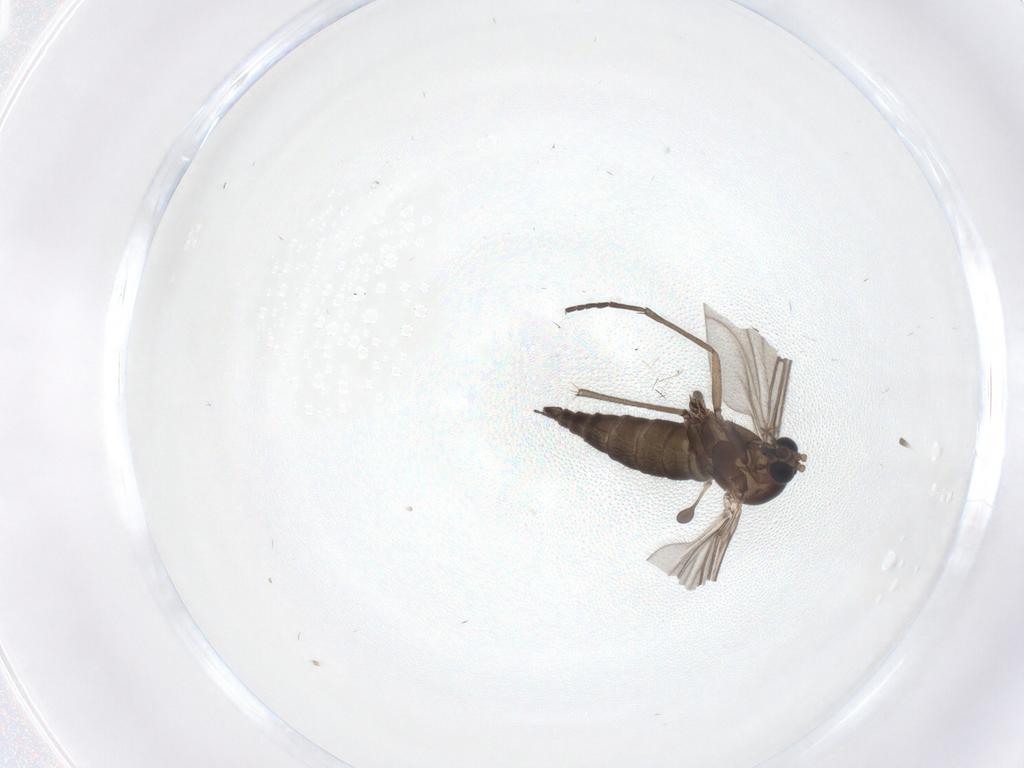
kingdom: Animalia
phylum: Arthropoda
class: Insecta
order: Diptera
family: Sciaridae
